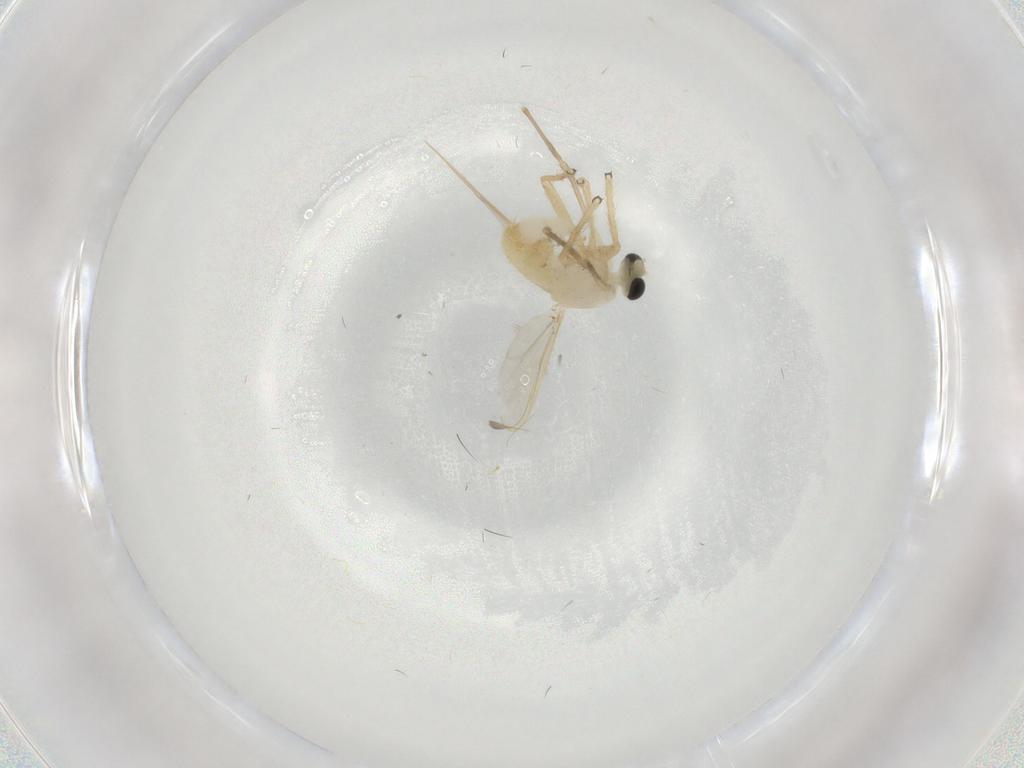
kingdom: Animalia
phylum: Arthropoda
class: Insecta
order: Diptera
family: Chironomidae
